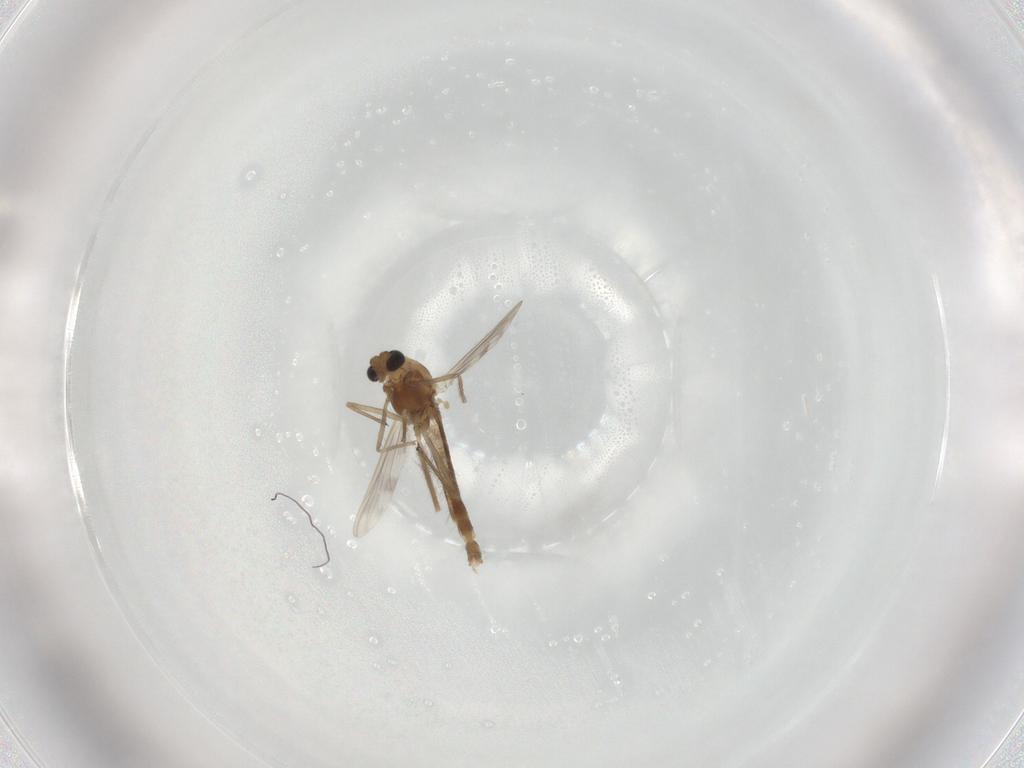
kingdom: Animalia
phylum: Arthropoda
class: Insecta
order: Diptera
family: Chironomidae
